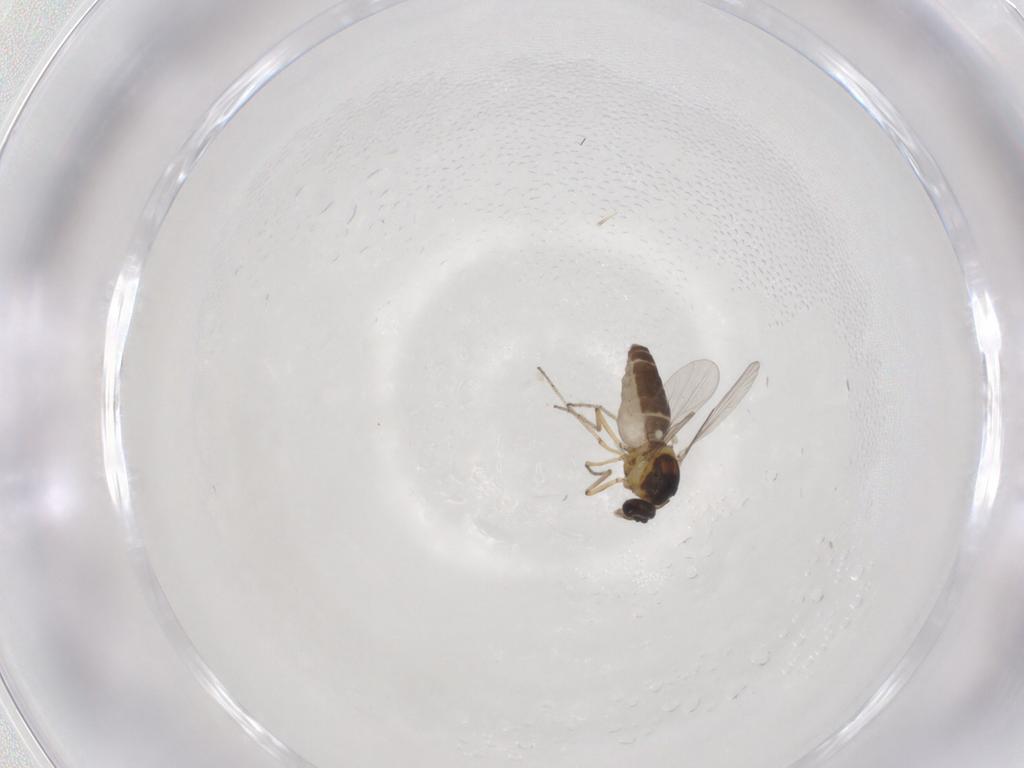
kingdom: Animalia
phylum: Arthropoda
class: Insecta
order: Diptera
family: Ceratopogonidae
